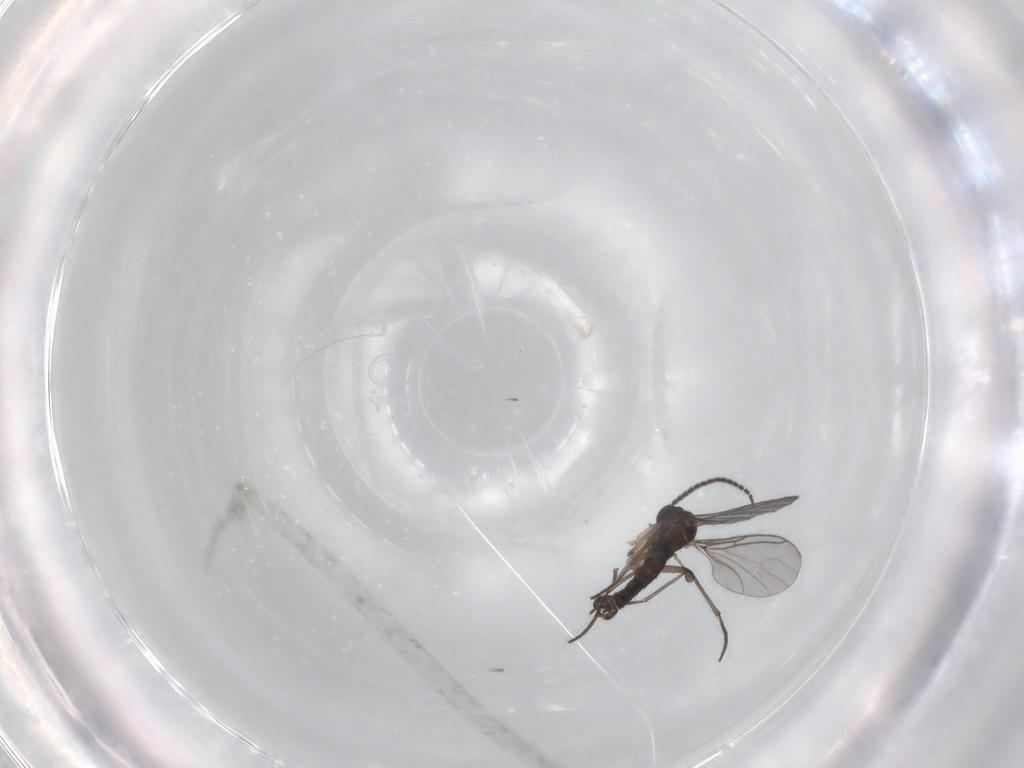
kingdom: Animalia
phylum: Arthropoda
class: Insecta
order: Diptera
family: Sciaridae
